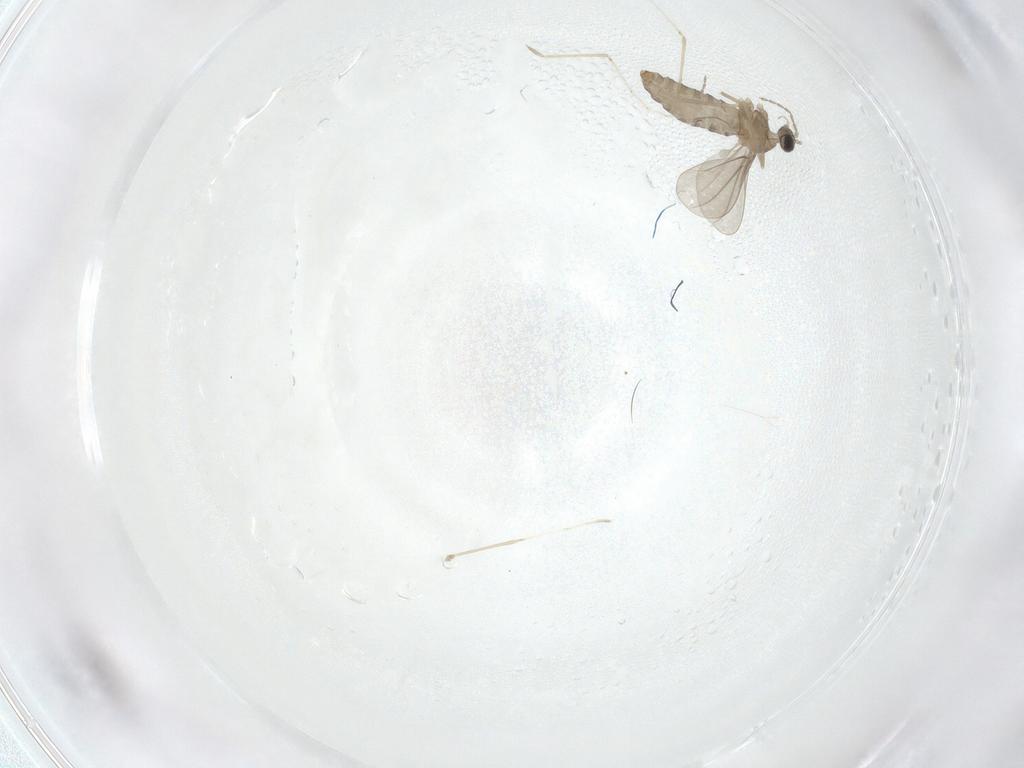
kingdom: Animalia
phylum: Arthropoda
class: Insecta
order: Diptera
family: Cecidomyiidae
